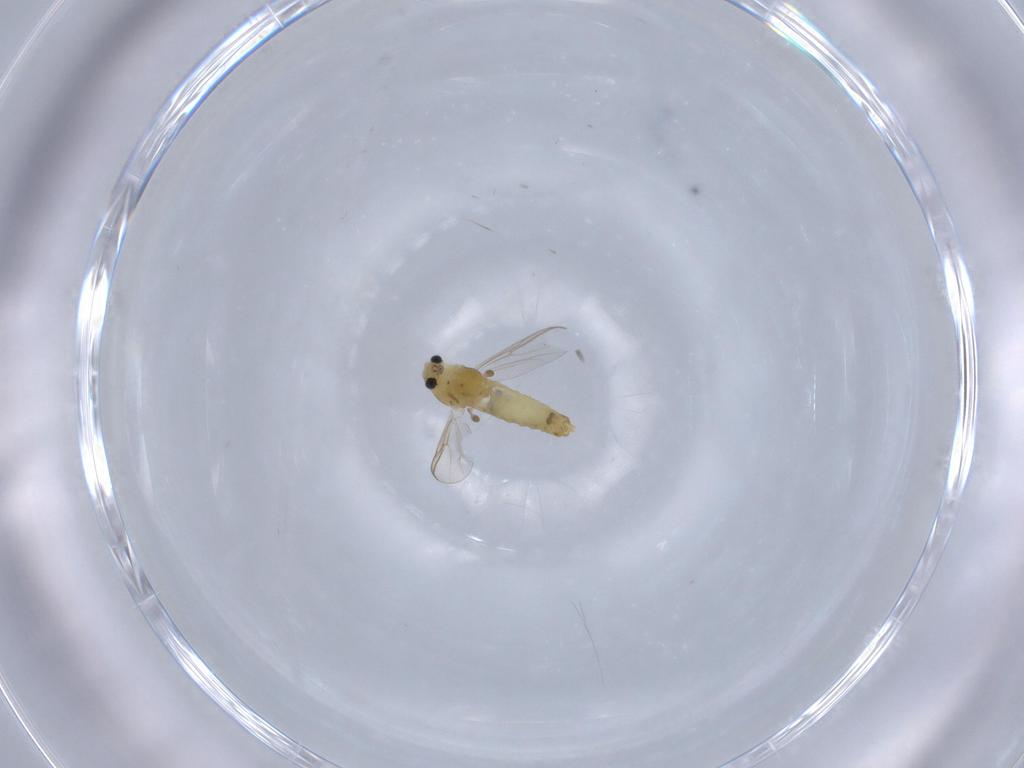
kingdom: Animalia
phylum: Arthropoda
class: Insecta
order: Diptera
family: Chironomidae
